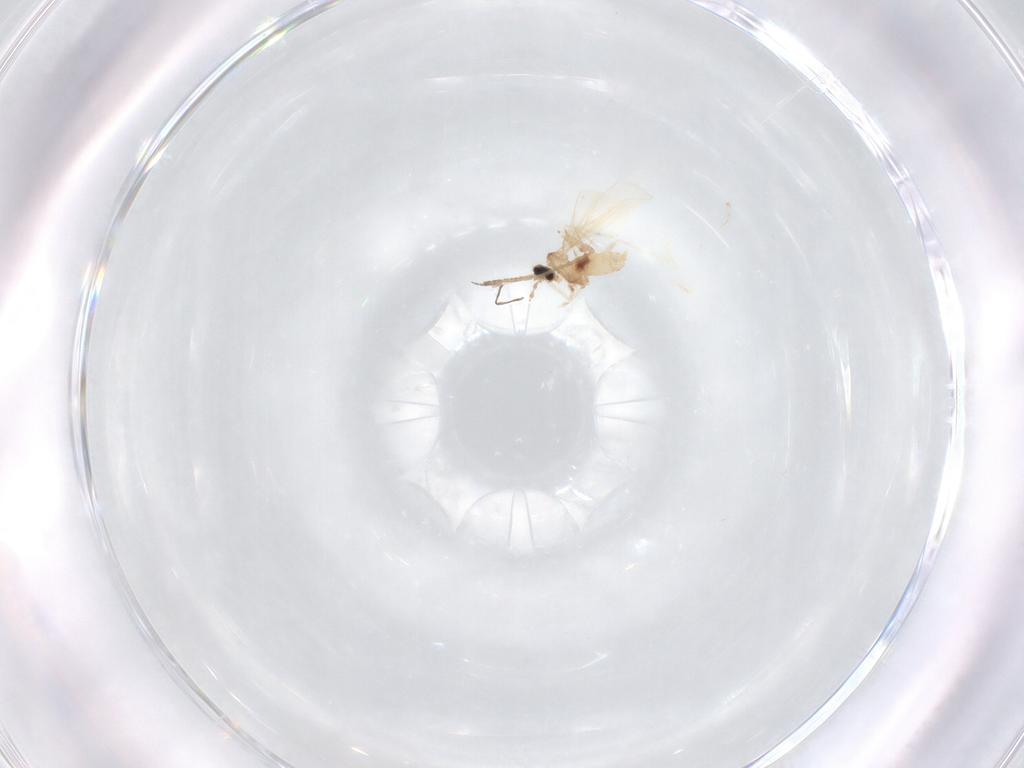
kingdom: Animalia
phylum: Arthropoda
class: Insecta
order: Diptera
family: Cecidomyiidae
